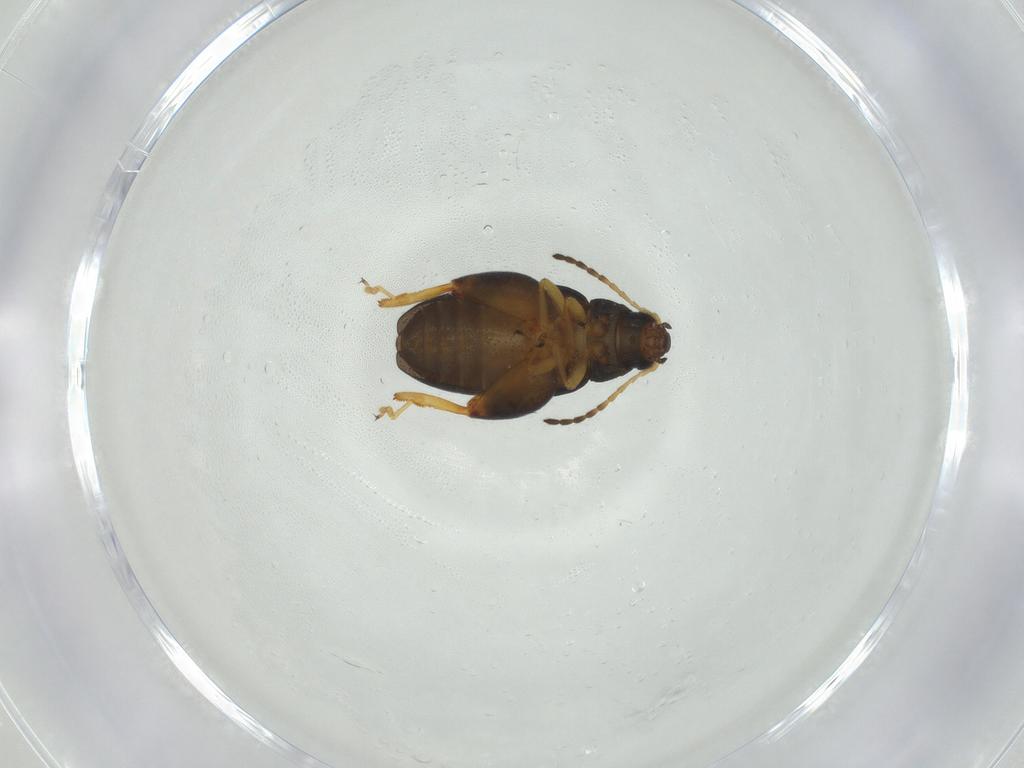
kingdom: Animalia
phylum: Arthropoda
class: Insecta
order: Coleoptera
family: Chrysomelidae
